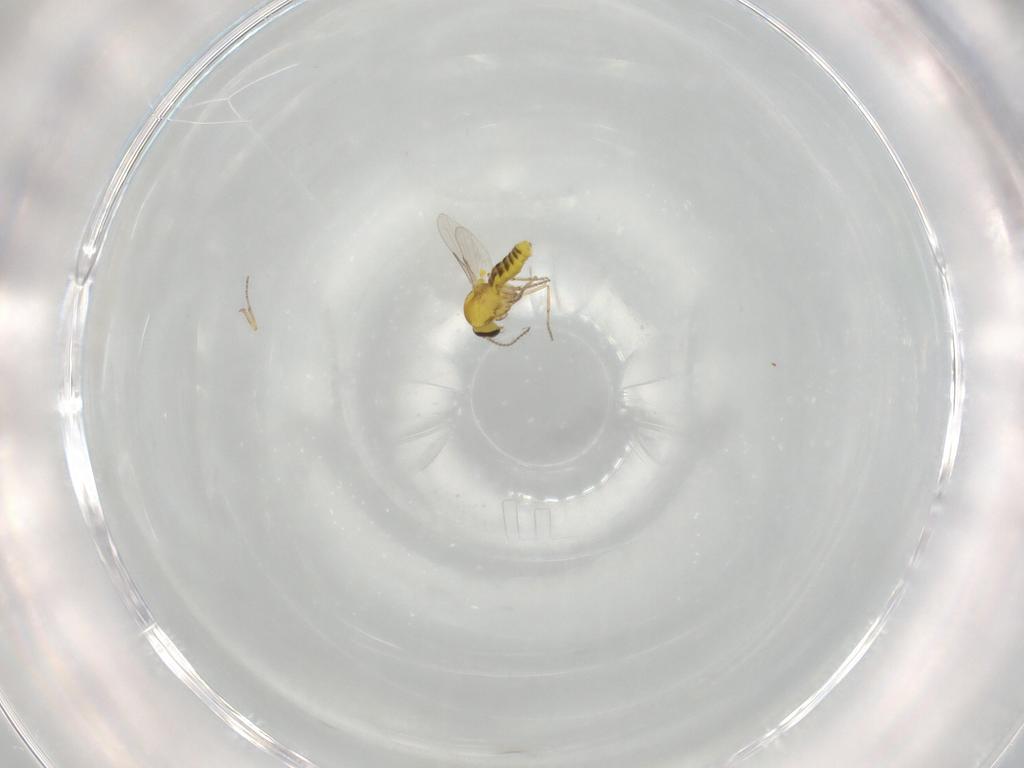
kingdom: Animalia
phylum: Arthropoda
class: Insecta
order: Diptera
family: Ceratopogonidae
